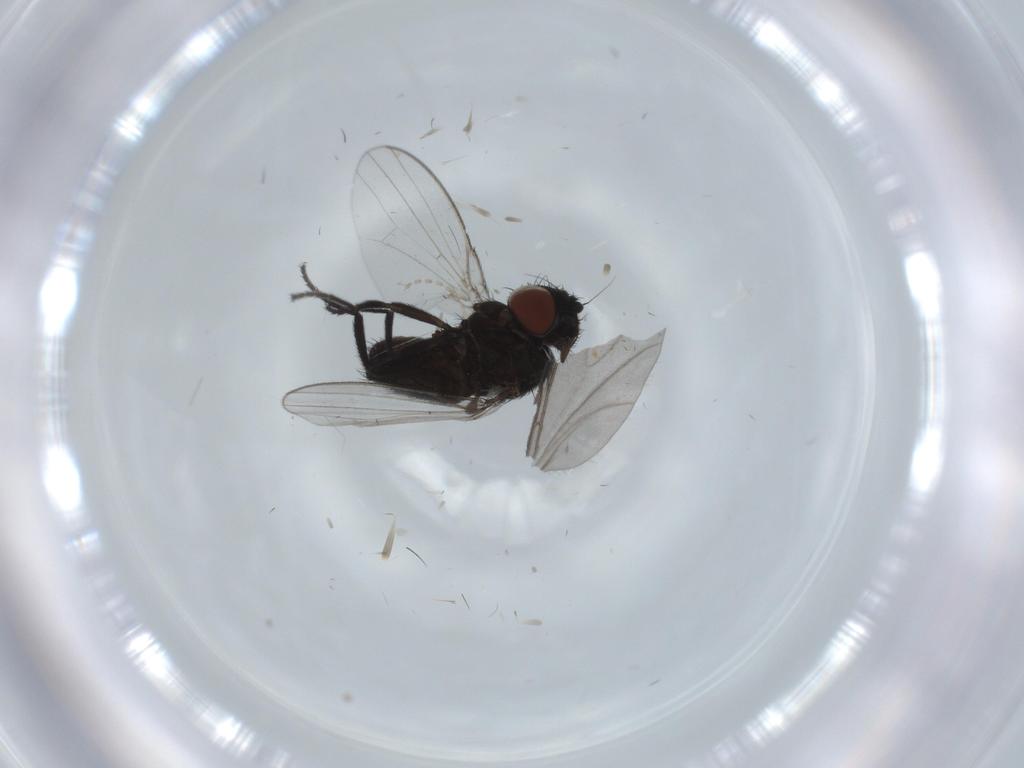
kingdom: Animalia
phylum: Arthropoda
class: Insecta
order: Diptera
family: Milichiidae
